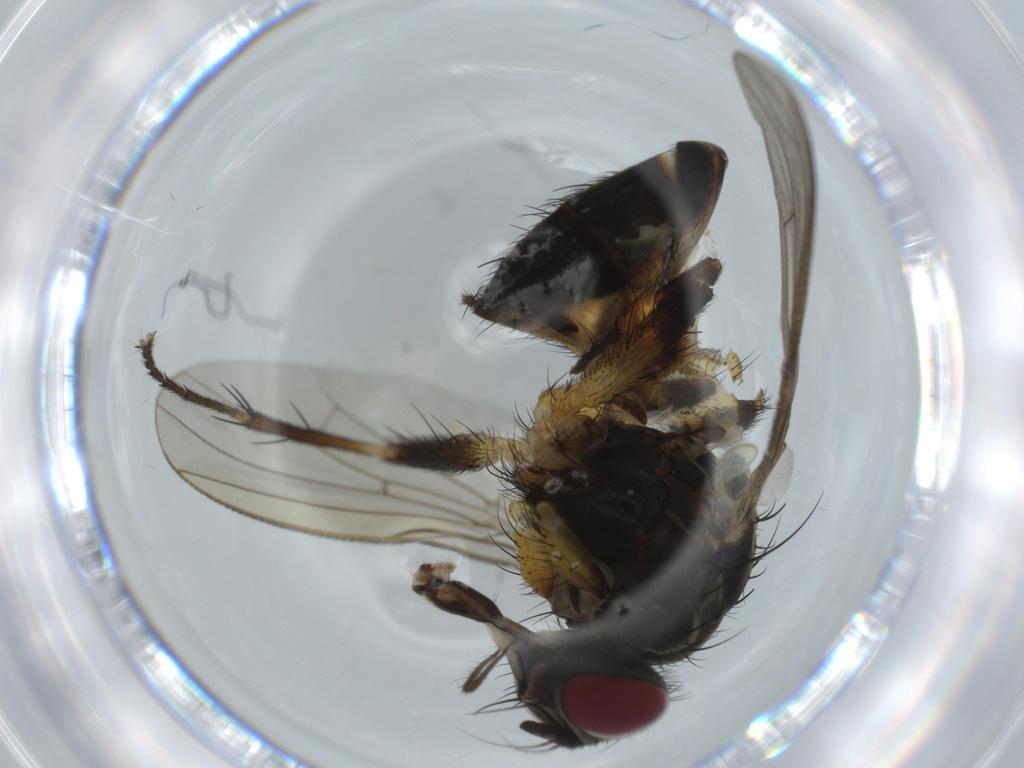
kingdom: Animalia
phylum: Arthropoda
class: Insecta
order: Diptera
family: Muscidae
